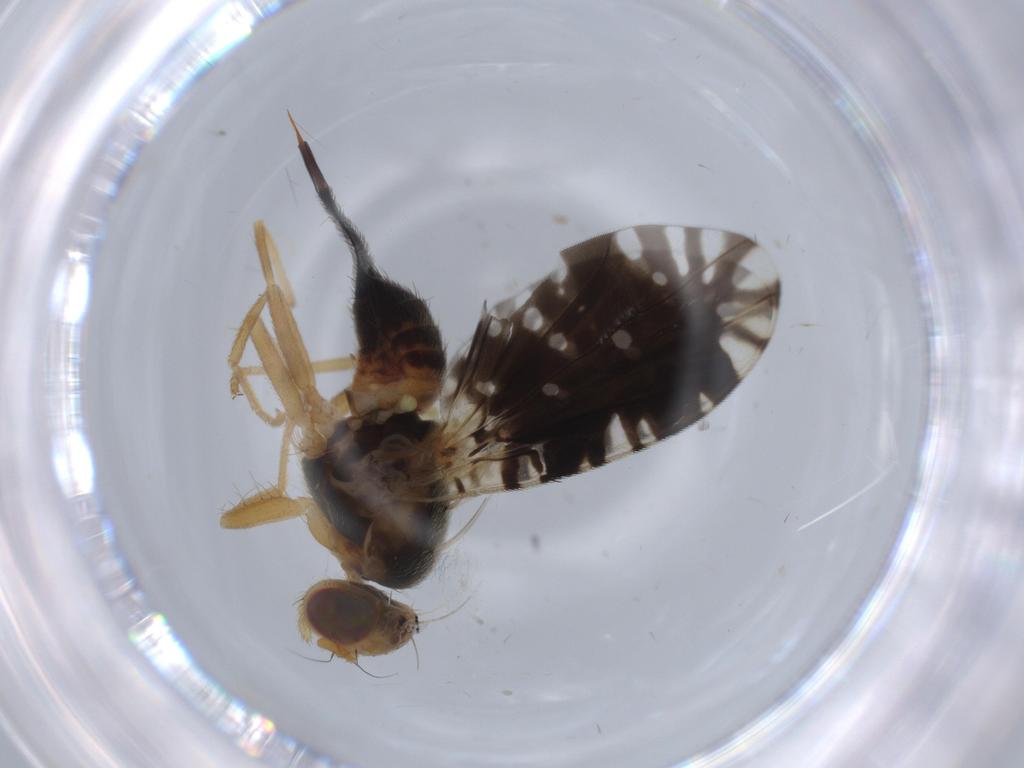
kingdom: Animalia
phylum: Arthropoda
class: Insecta
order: Diptera
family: Tephritidae
